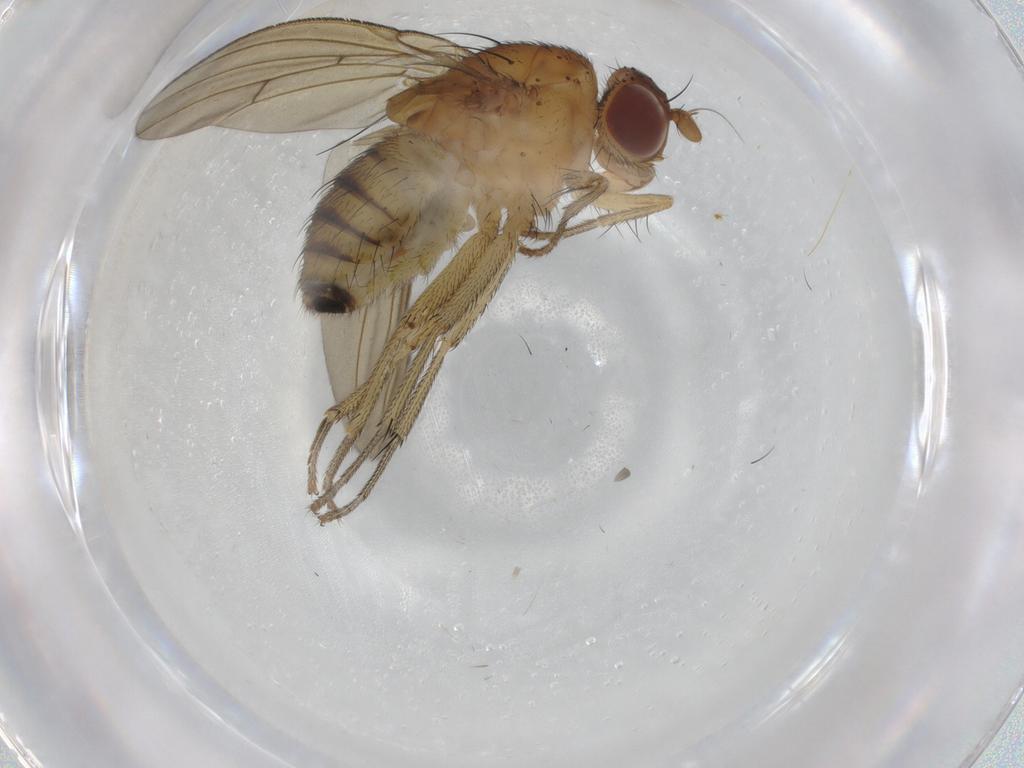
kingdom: Animalia
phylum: Arthropoda
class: Insecta
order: Diptera
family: Chironomidae
